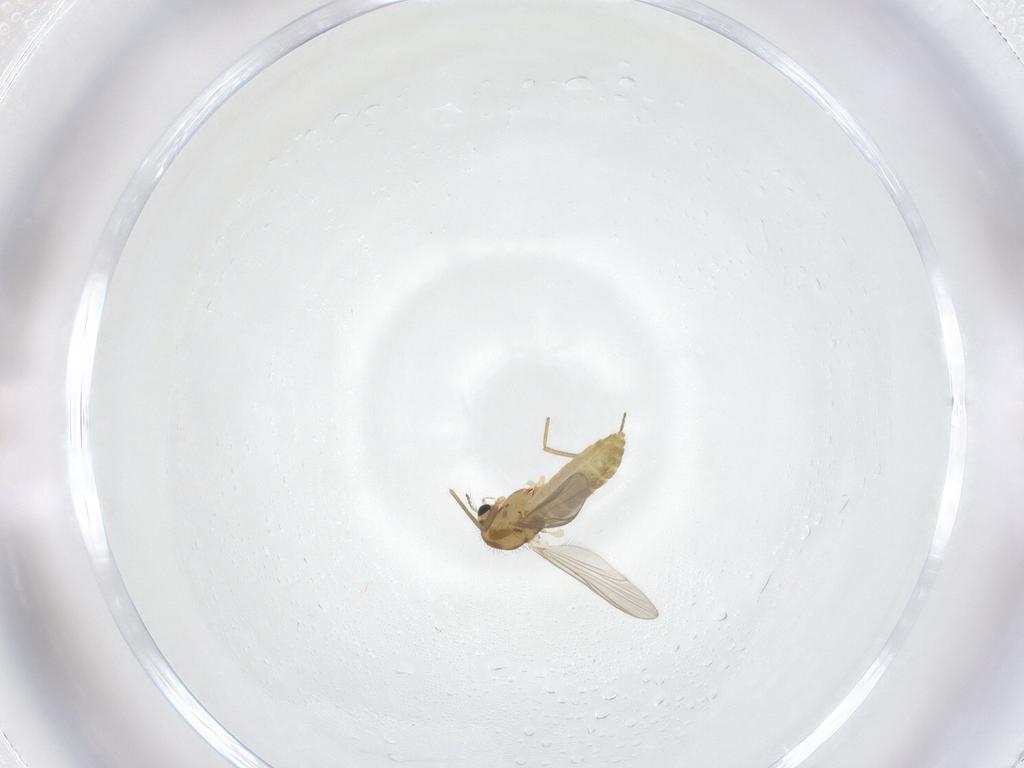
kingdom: Animalia
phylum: Arthropoda
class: Insecta
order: Diptera
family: Chironomidae
